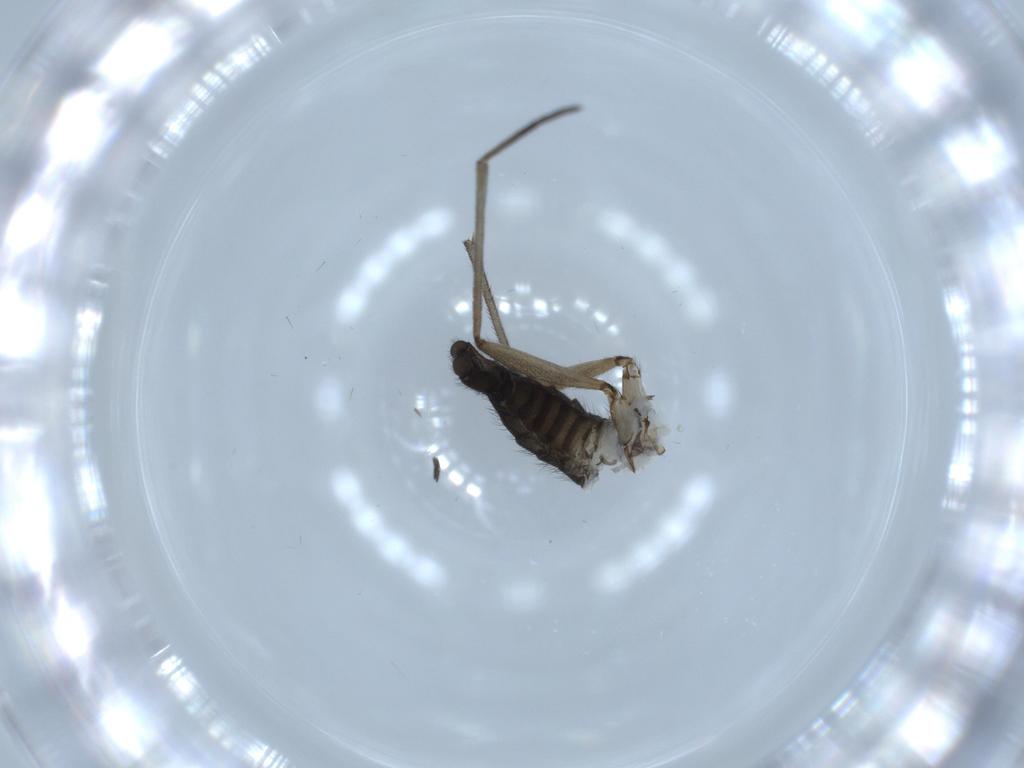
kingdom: Animalia
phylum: Arthropoda
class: Insecta
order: Diptera
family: Sciaridae
